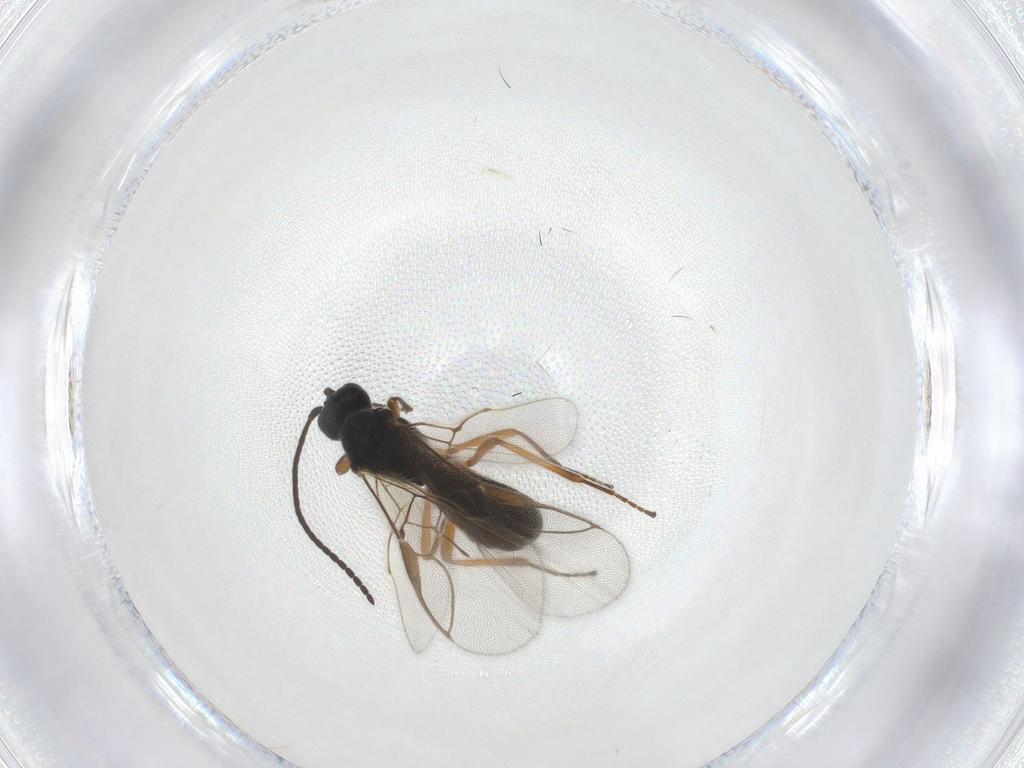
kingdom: Animalia
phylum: Arthropoda
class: Insecta
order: Hymenoptera
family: Braconidae
